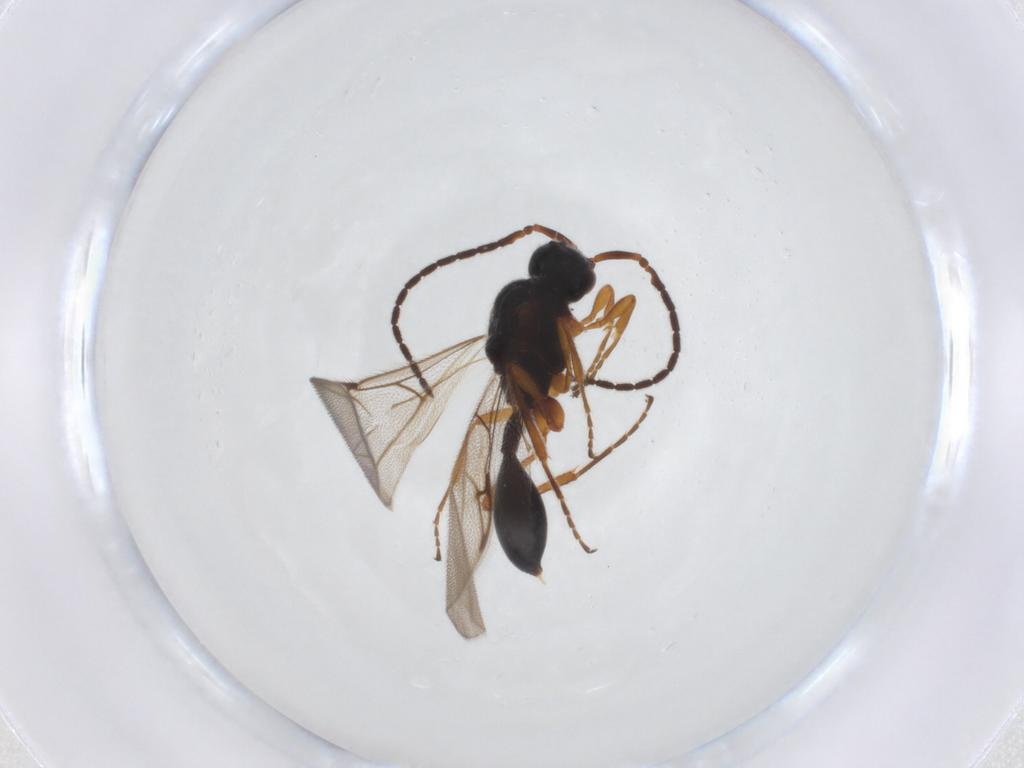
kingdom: Animalia
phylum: Arthropoda
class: Insecta
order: Hymenoptera
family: Diapriidae
